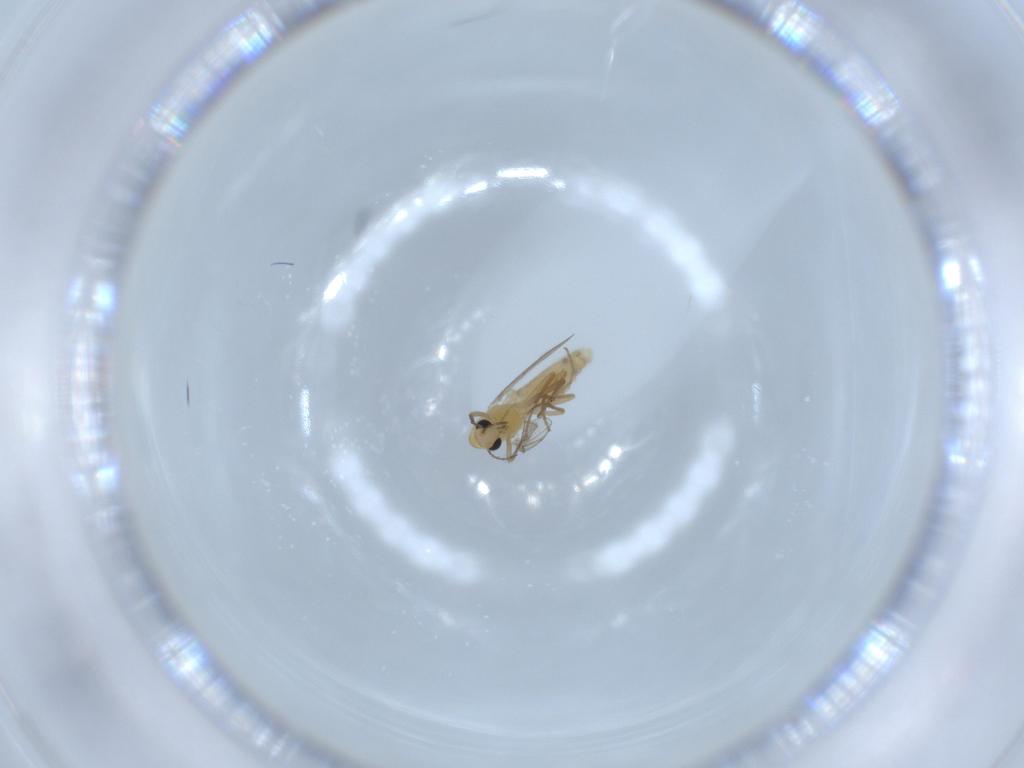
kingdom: Animalia
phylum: Arthropoda
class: Insecta
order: Diptera
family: Chironomidae
